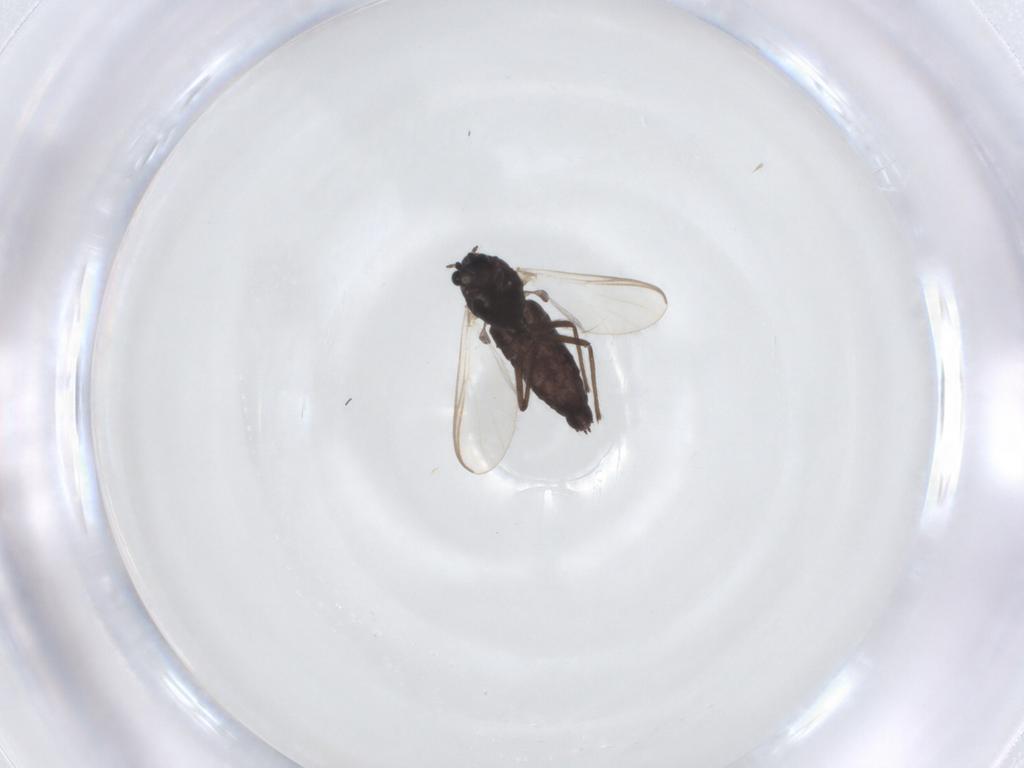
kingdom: Animalia
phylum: Arthropoda
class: Insecta
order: Diptera
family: Chironomidae
